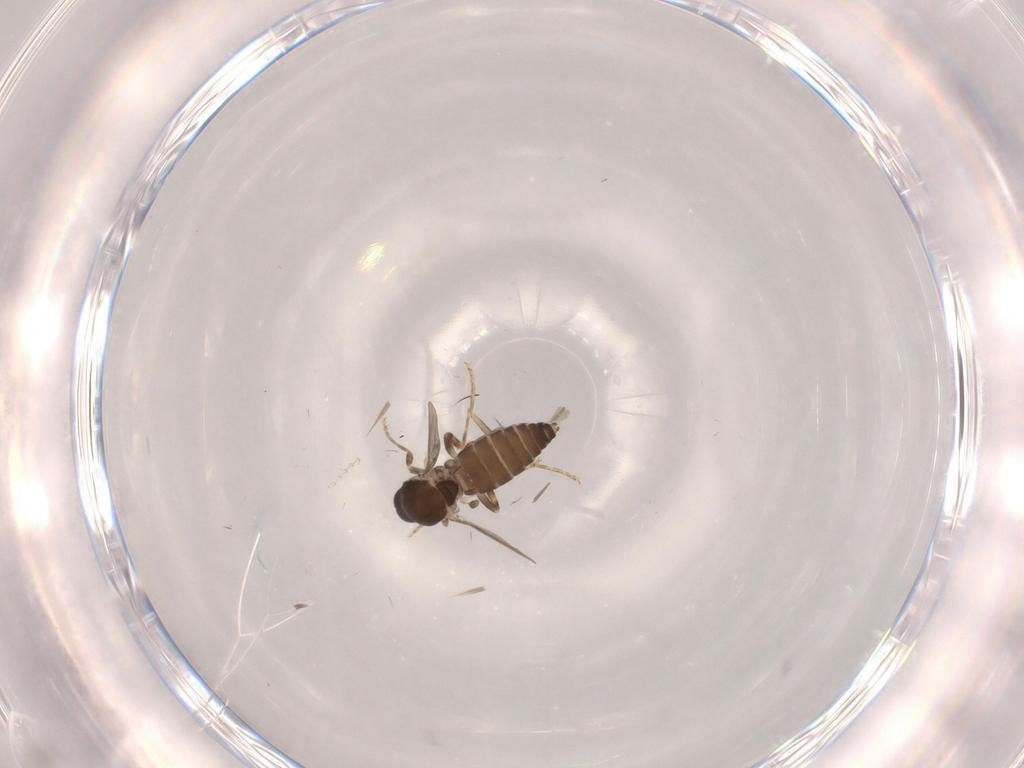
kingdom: Animalia
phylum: Arthropoda
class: Insecta
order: Diptera
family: Ceratopogonidae
